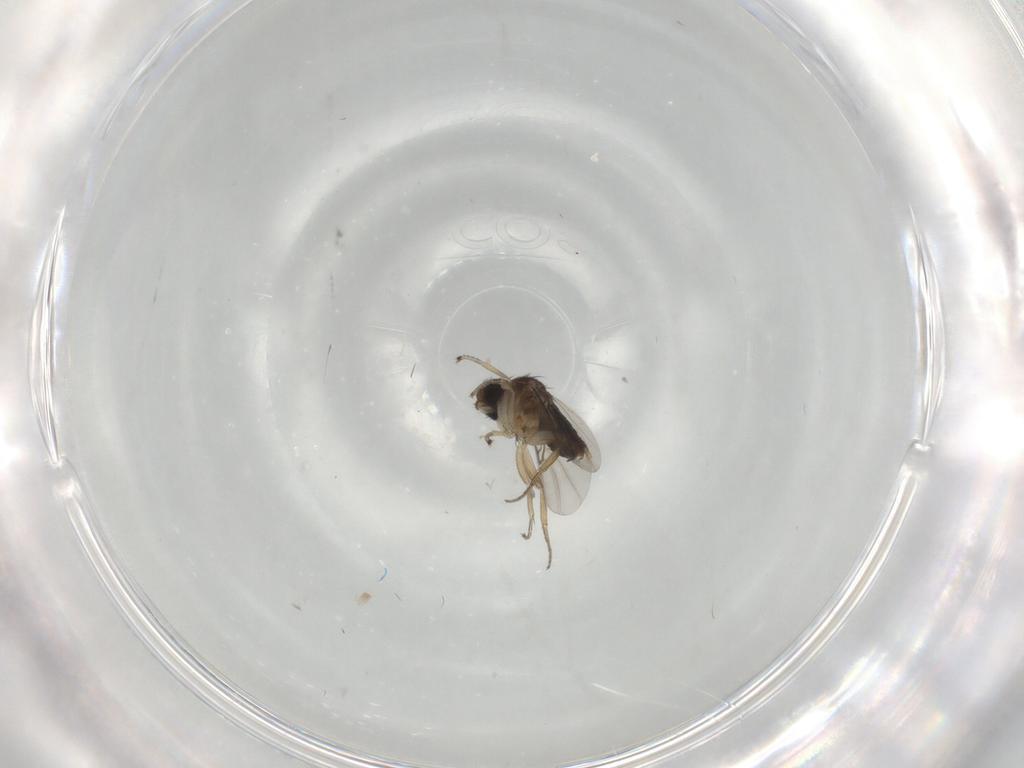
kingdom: Animalia
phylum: Arthropoda
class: Insecta
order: Diptera
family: Phoridae
